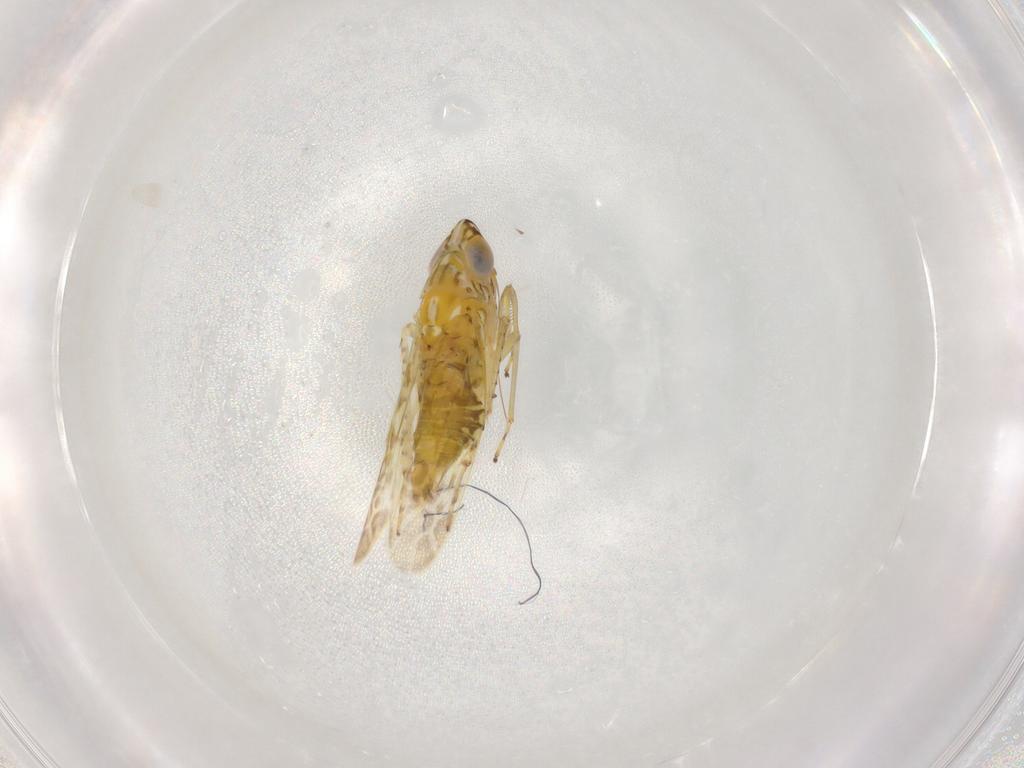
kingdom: Animalia
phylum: Arthropoda
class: Insecta
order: Hemiptera
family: Cicadellidae
